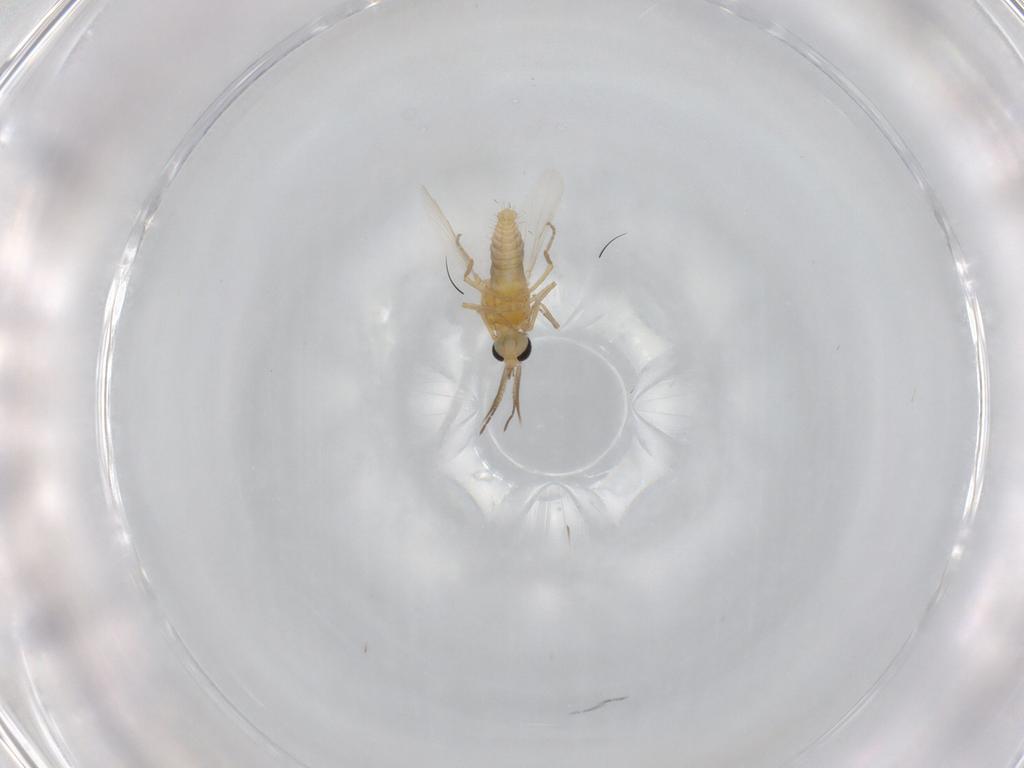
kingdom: Animalia
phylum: Arthropoda
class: Insecta
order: Diptera
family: Ceratopogonidae
